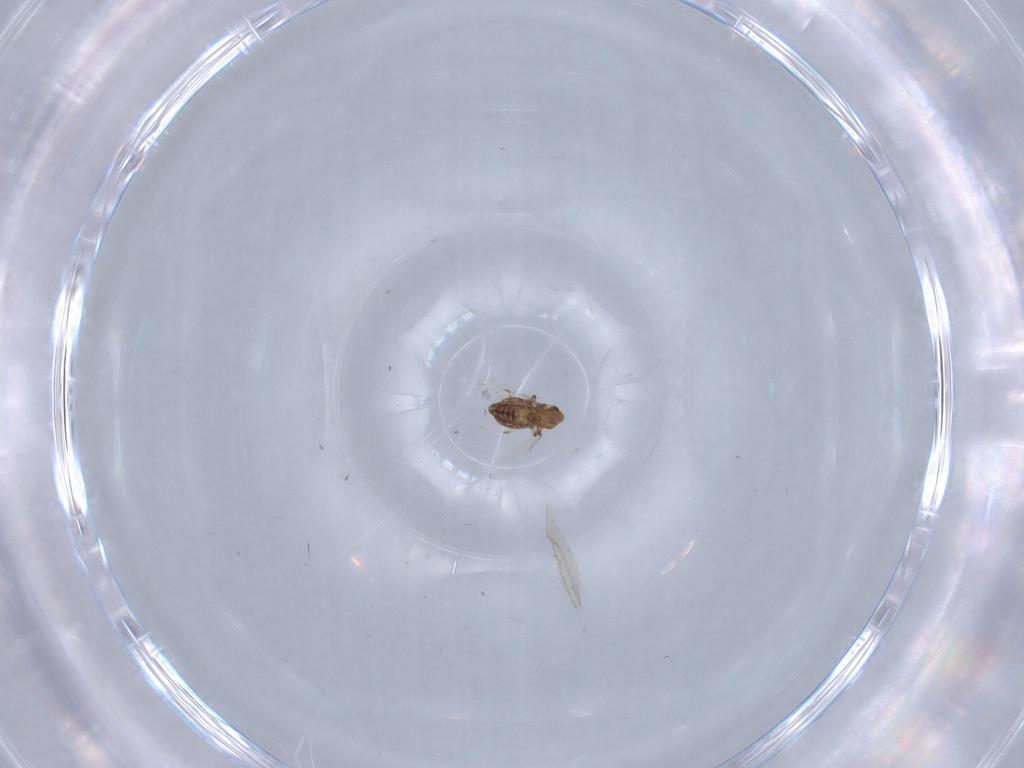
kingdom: Animalia
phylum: Arthropoda
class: Insecta
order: Diptera
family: Chironomidae
